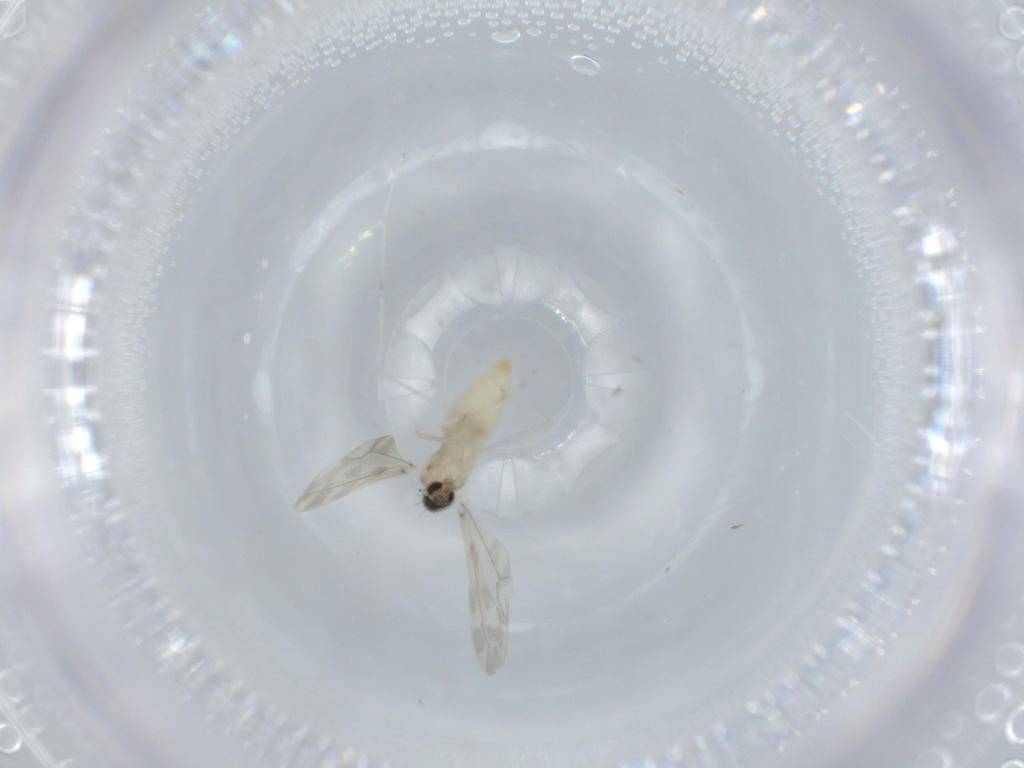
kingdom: Animalia
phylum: Arthropoda
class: Insecta
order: Diptera
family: Cecidomyiidae
